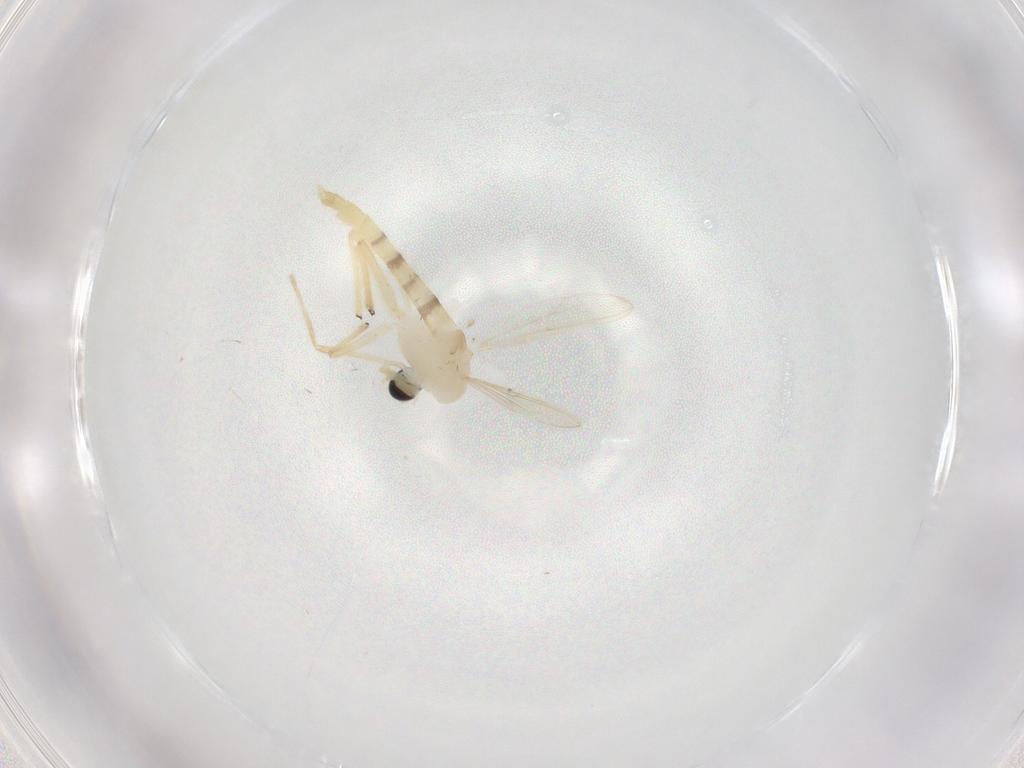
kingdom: Animalia
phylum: Arthropoda
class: Insecta
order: Diptera
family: Chironomidae
